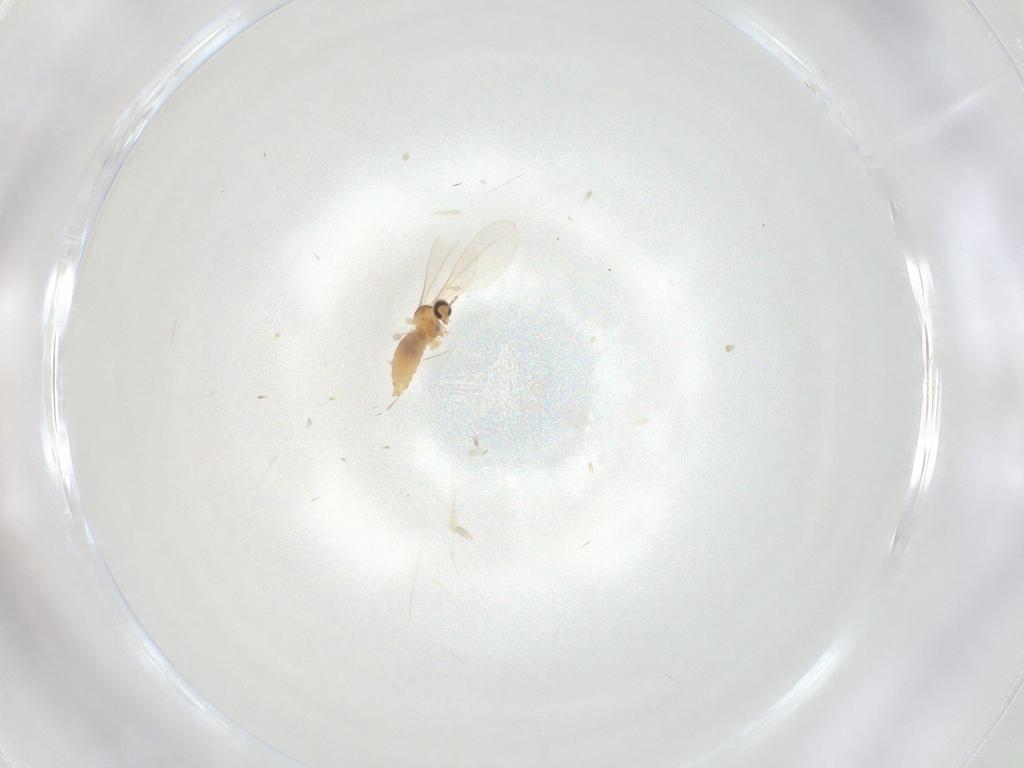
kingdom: Animalia
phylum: Arthropoda
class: Insecta
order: Diptera
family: Cecidomyiidae
